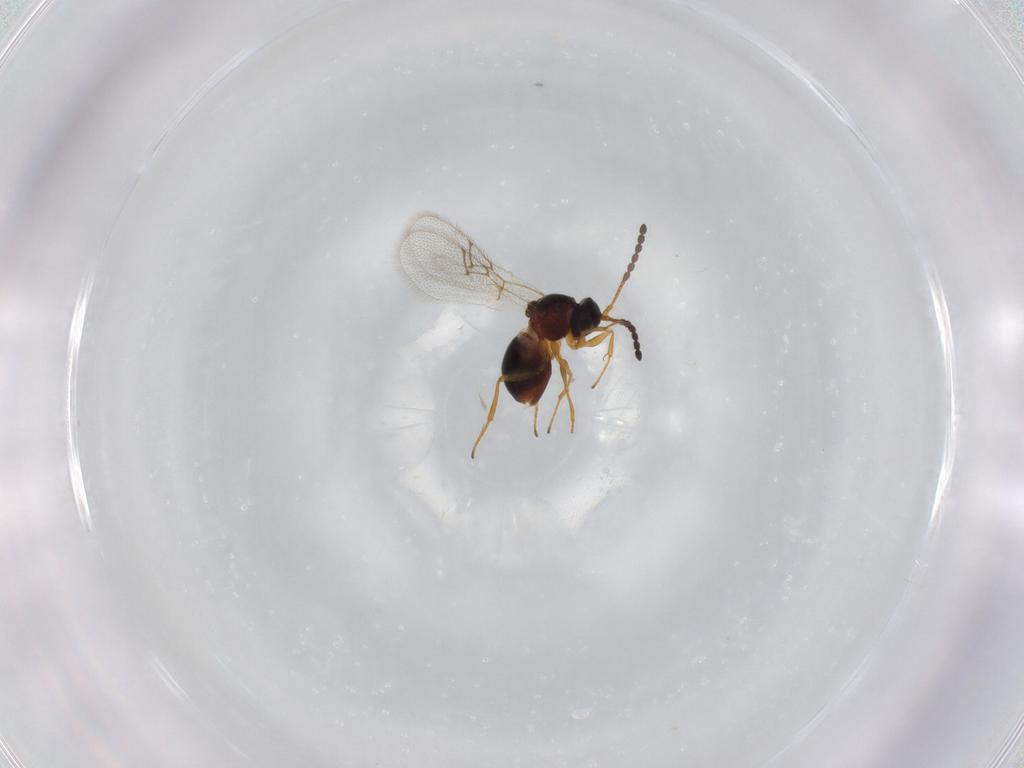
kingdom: Animalia
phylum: Arthropoda
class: Insecta
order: Hymenoptera
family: Figitidae
